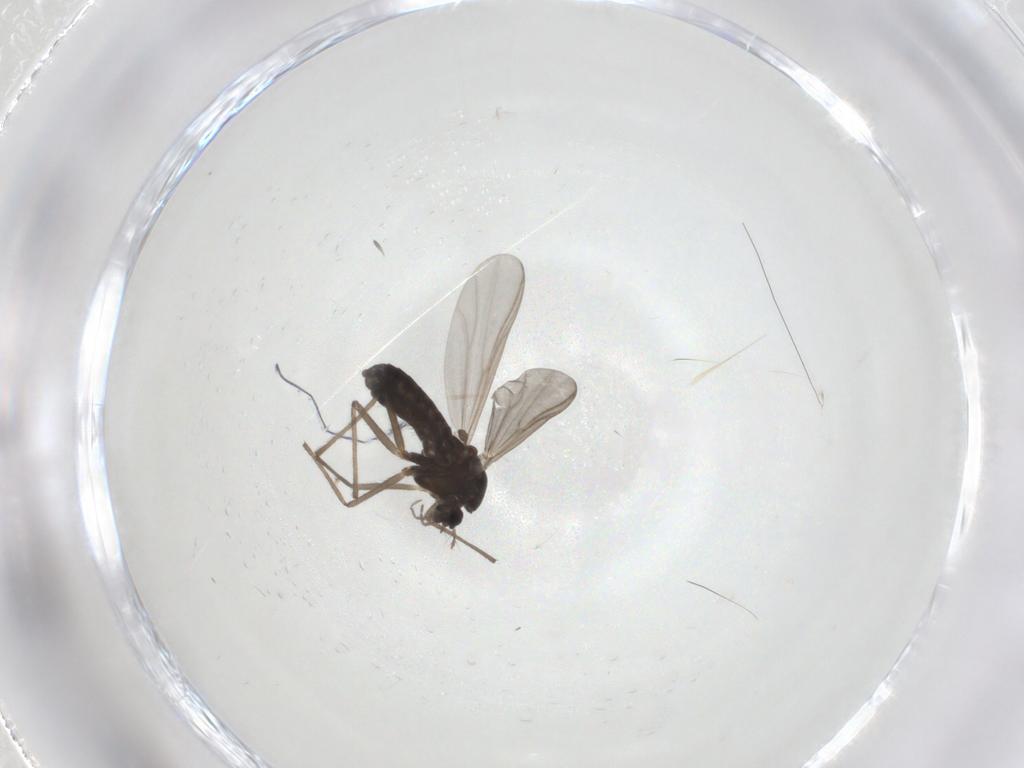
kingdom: Animalia
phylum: Arthropoda
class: Insecta
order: Diptera
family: Chironomidae
